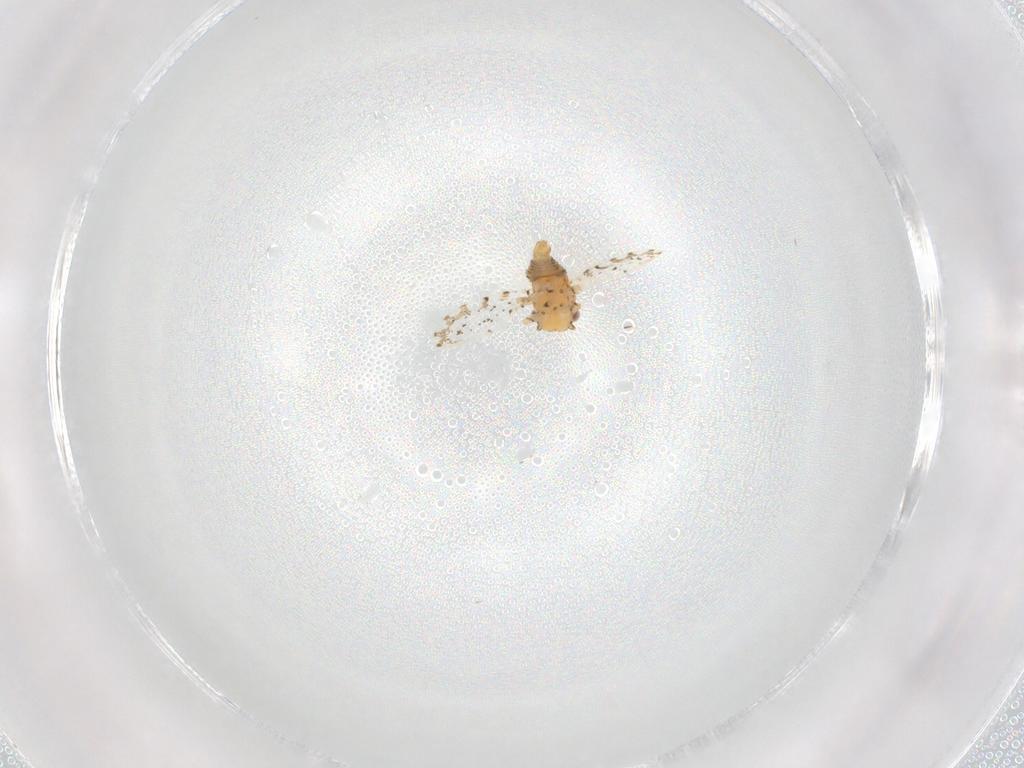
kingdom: Animalia
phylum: Arthropoda
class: Insecta
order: Hemiptera
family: Psylloidea_incertae_sedis
